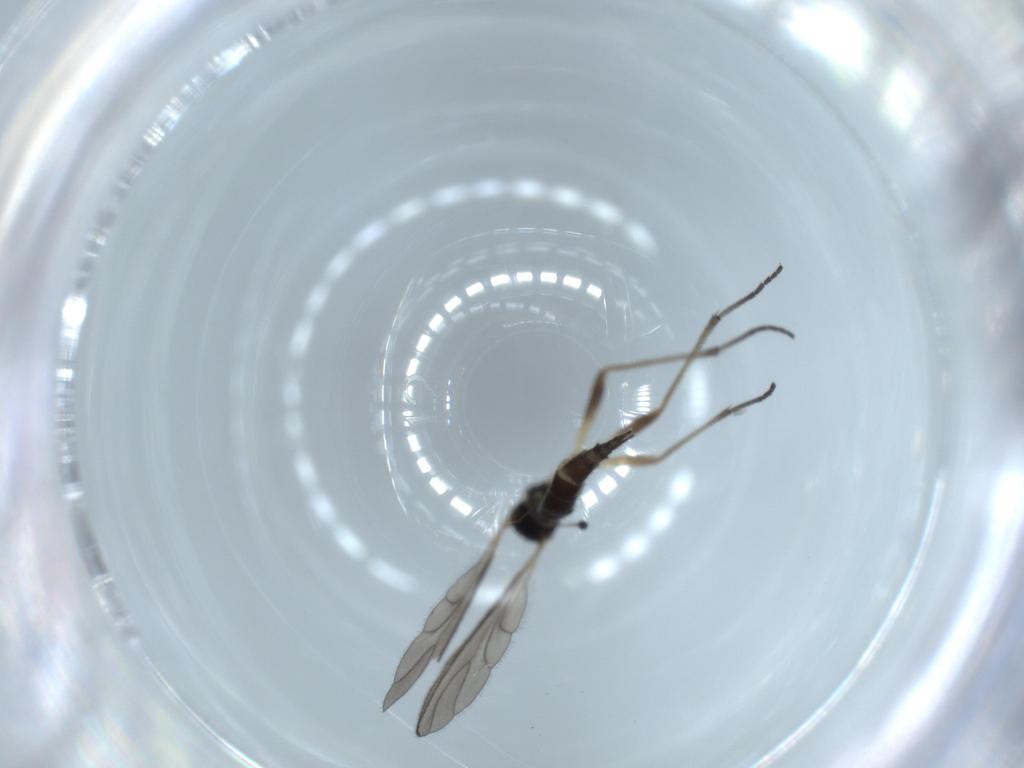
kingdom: Animalia
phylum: Arthropoda
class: Insecta
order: Diptera
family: Sciaridae
